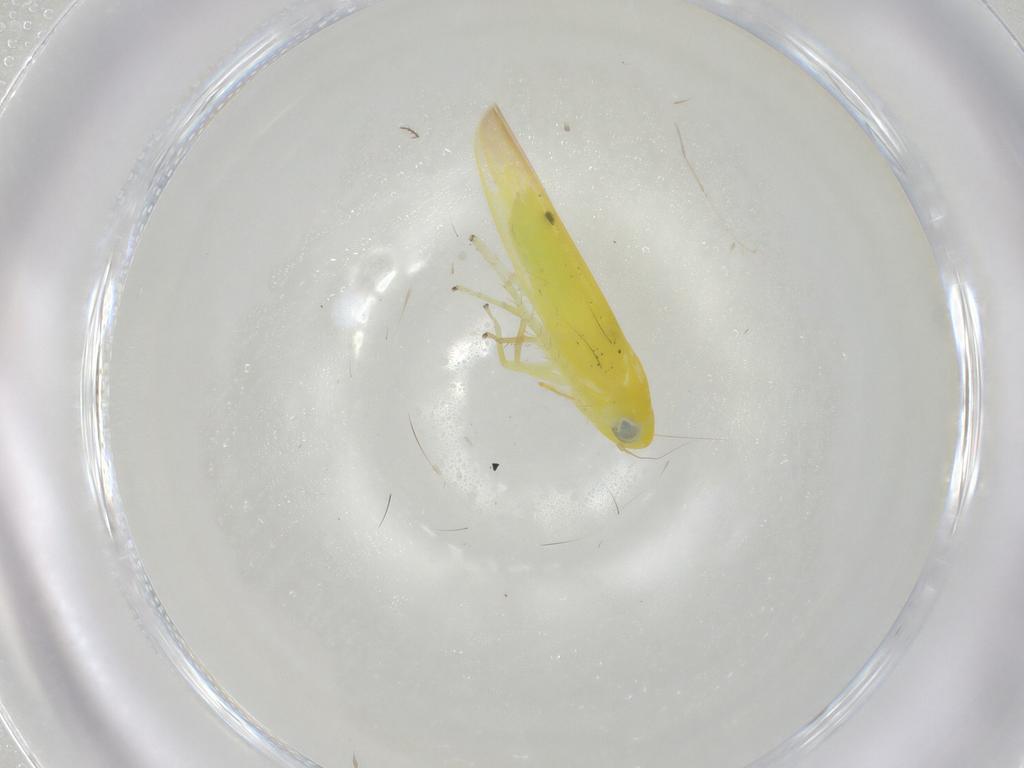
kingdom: Animalia
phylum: Arthropoda
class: Insecta
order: Hemiptera
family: Cicadellidae
